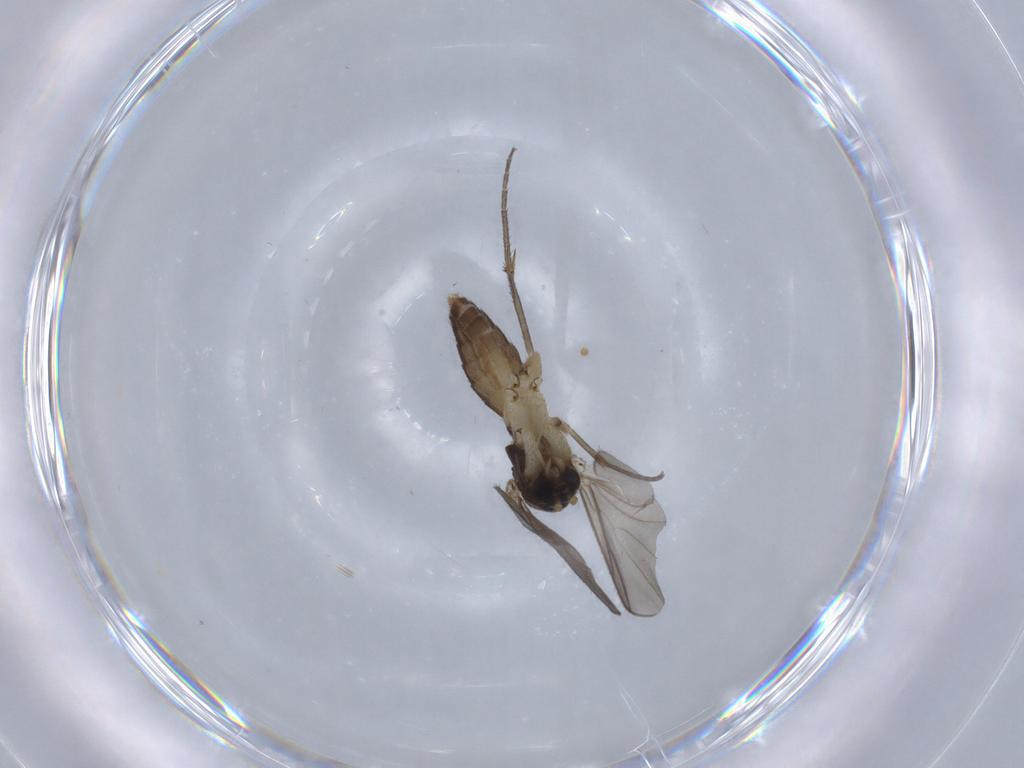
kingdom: Animalia
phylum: Arthropoda
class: Insecta
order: Diptera
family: Mycetophilidae
